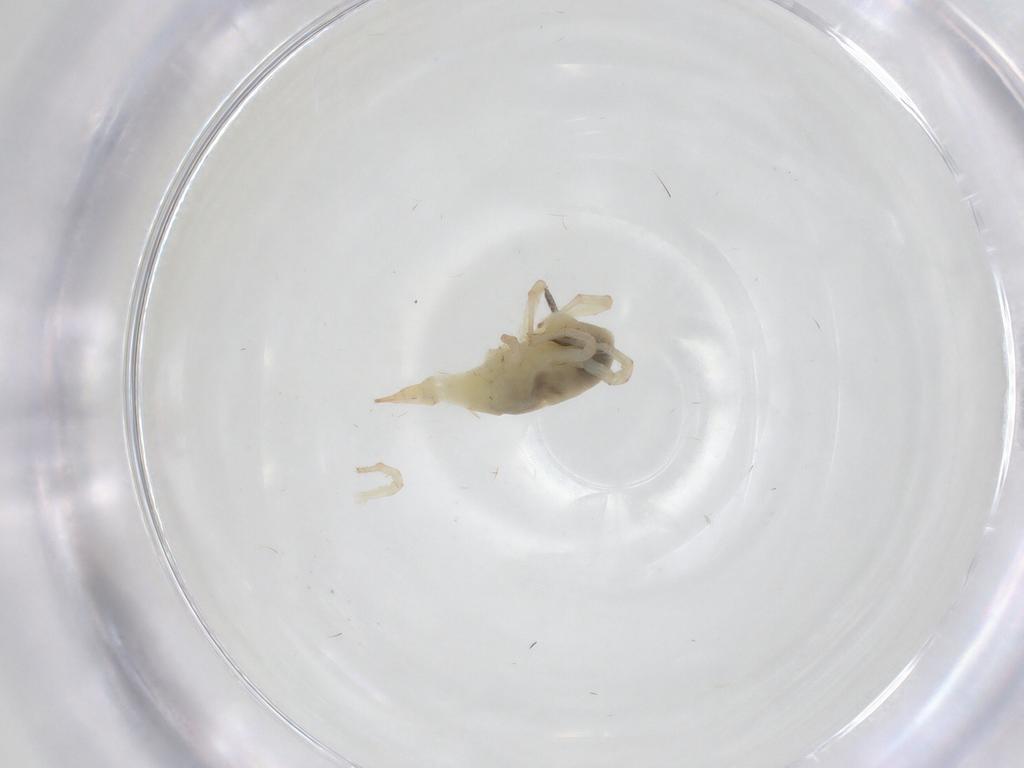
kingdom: Animalia
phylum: Arthropoda
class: Arachnida
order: Trombidiformes
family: Bdellidae
